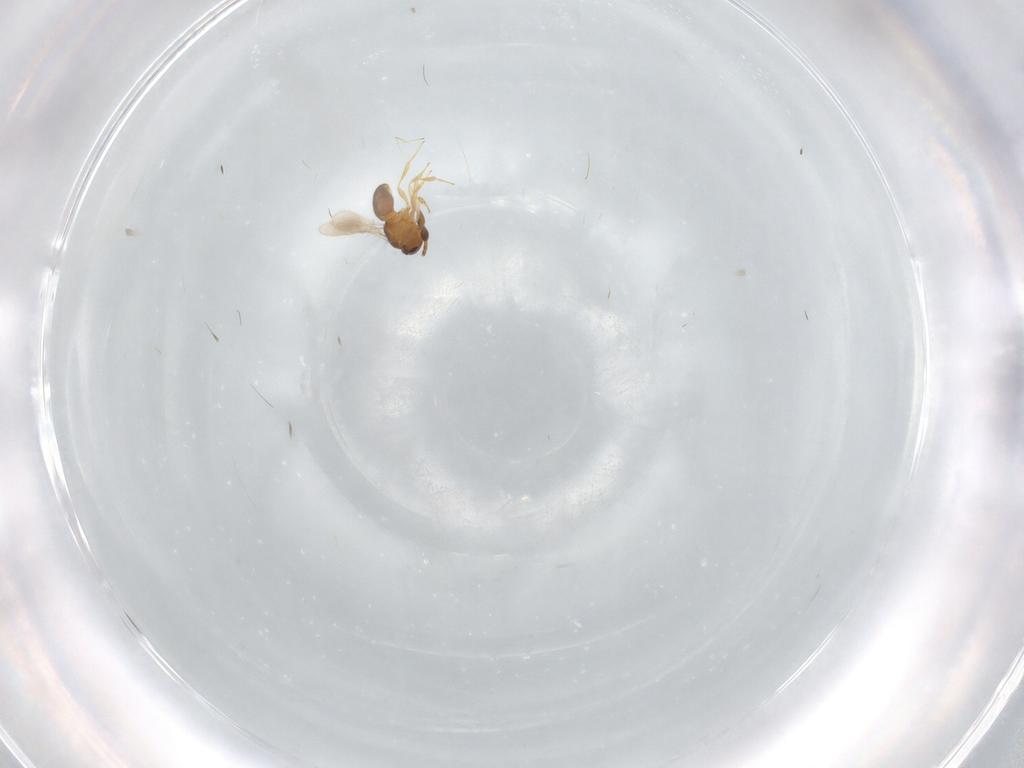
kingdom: Animalia
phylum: Arthropoda
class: Insecta
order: Hymenoptera
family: Scelionidae
